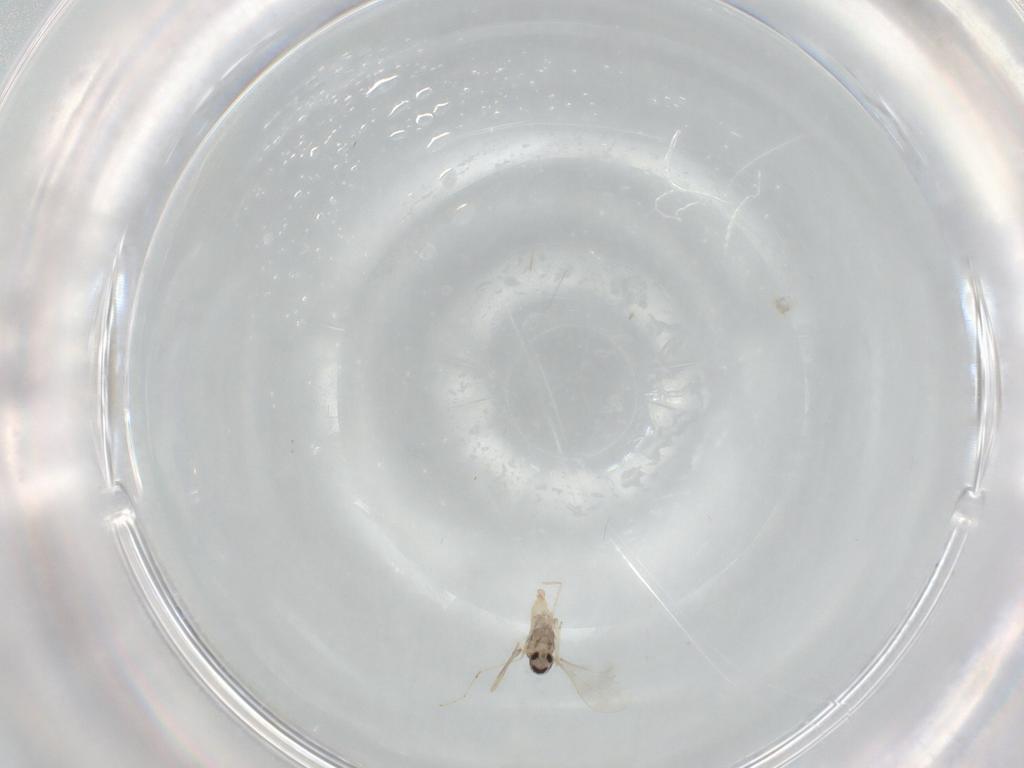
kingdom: Animalia
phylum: Arthropoda
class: Insecta
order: Diptera
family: Cecidomyiidae
